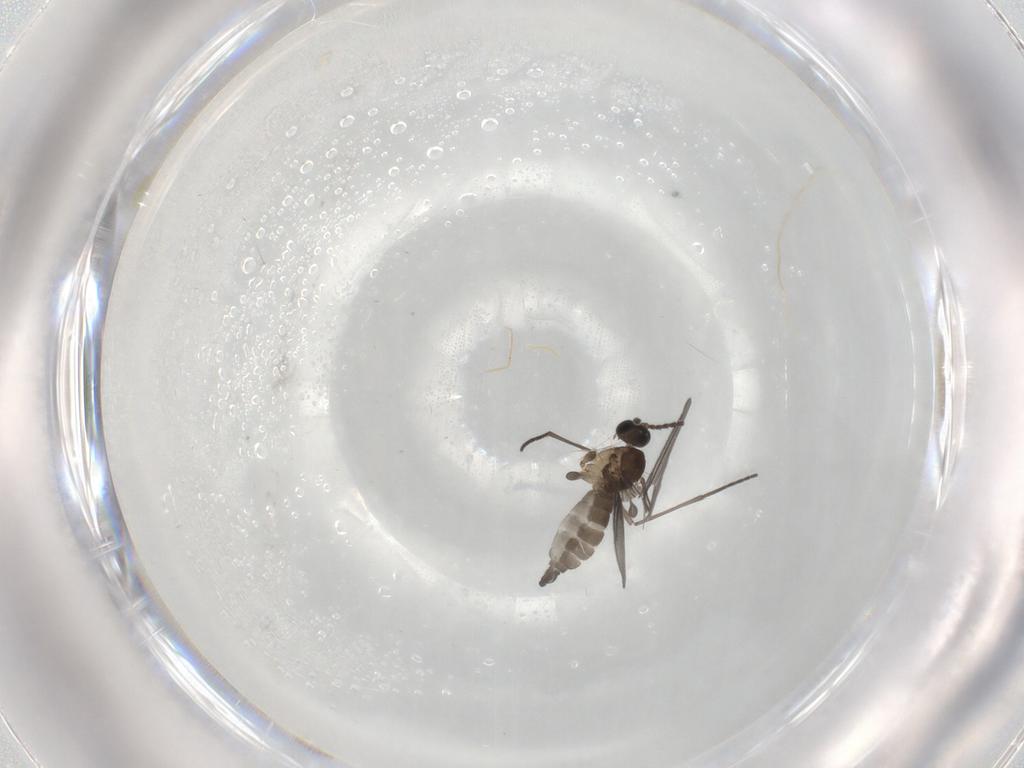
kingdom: Animalia
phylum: Arthropoda
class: Insecta
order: Diptera
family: Sciaridae
